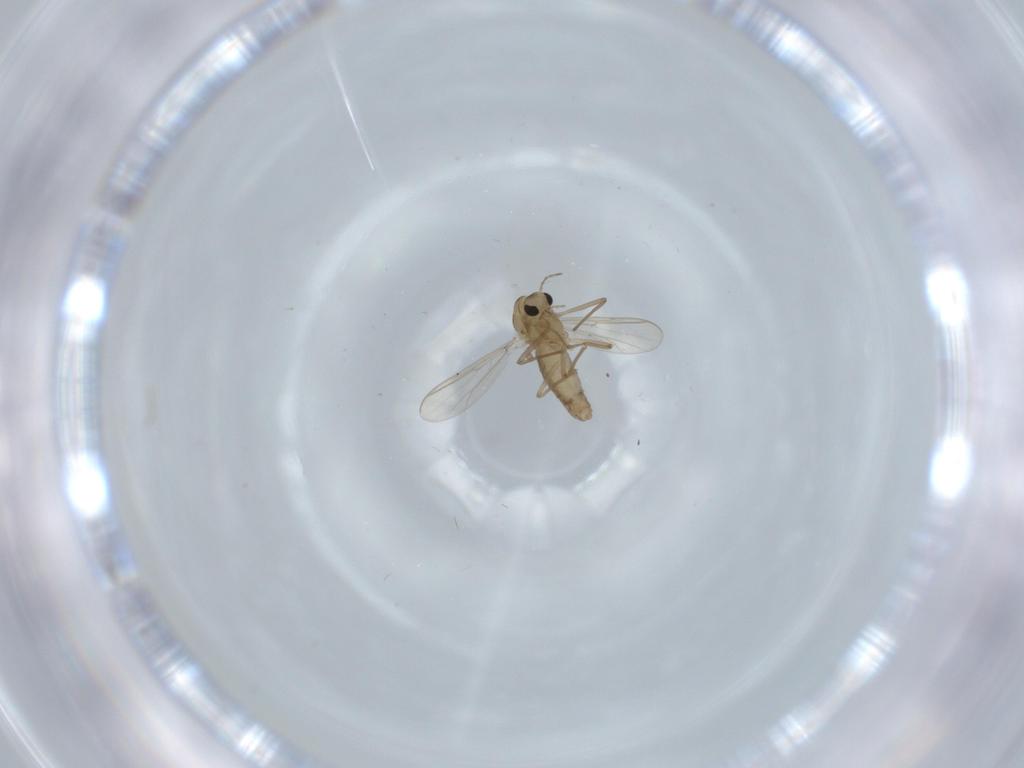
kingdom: Animalia
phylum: Arthropoda
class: Insecta
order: Diptera
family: Chironomidae
